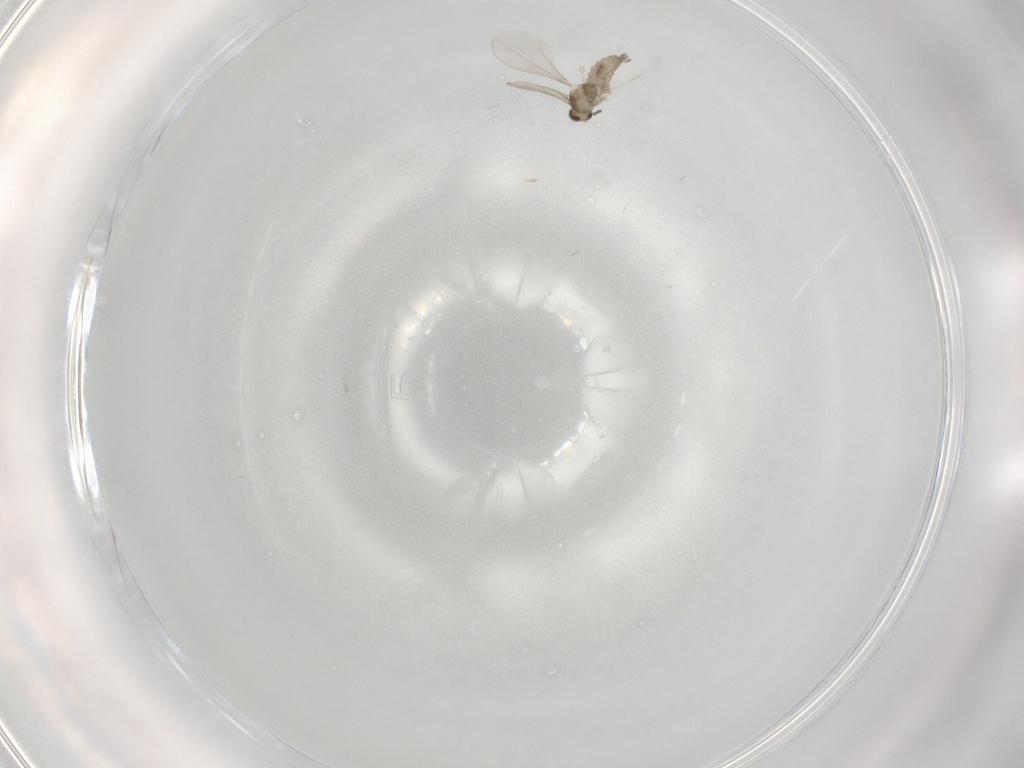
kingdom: Animalia
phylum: Arthropoda
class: Insecta
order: Diptera
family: Cecidomyiidae
